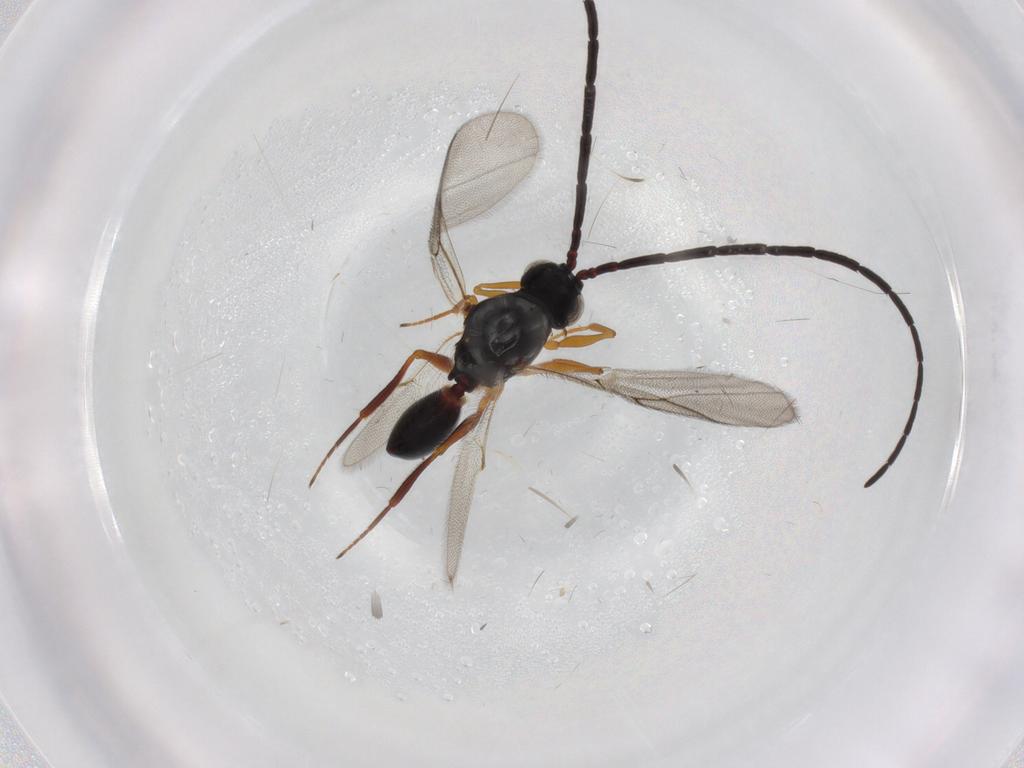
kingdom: Animalia
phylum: Arthropoda
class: Insecta
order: Hymenoptera
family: Figitidae
